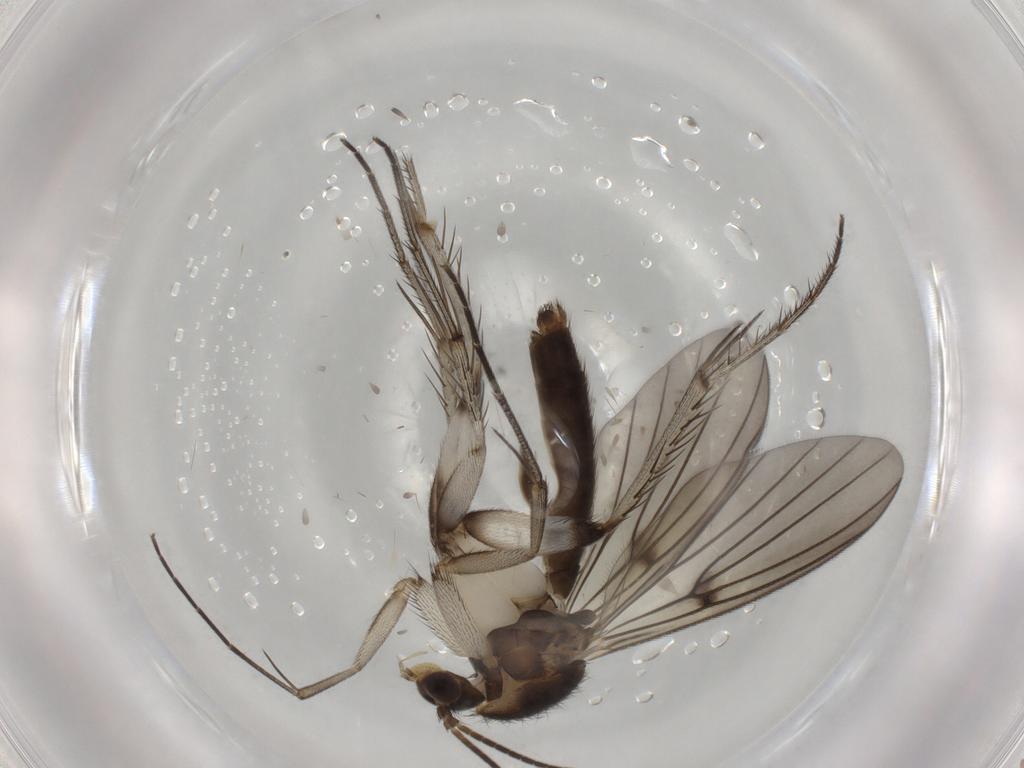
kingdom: Animalia
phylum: Arthropoda
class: Insecta
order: Diptera
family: Mycetophilidae
